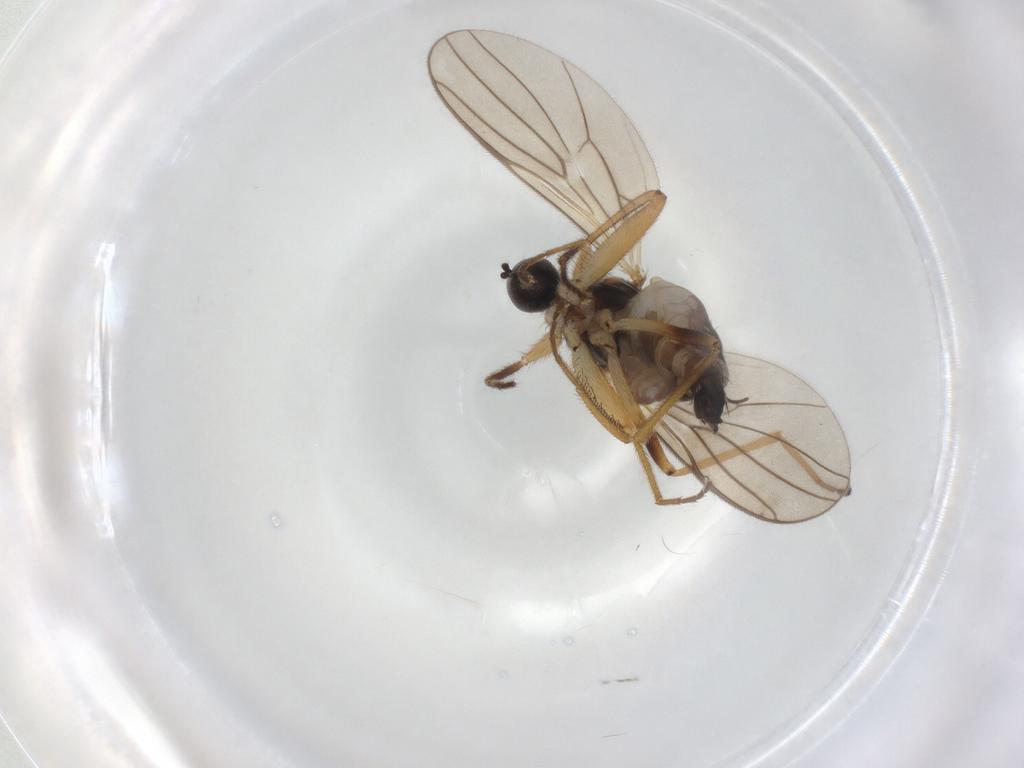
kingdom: Animalia
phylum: Arthropoda
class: Insecta
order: Diptera
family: Hybotidae
